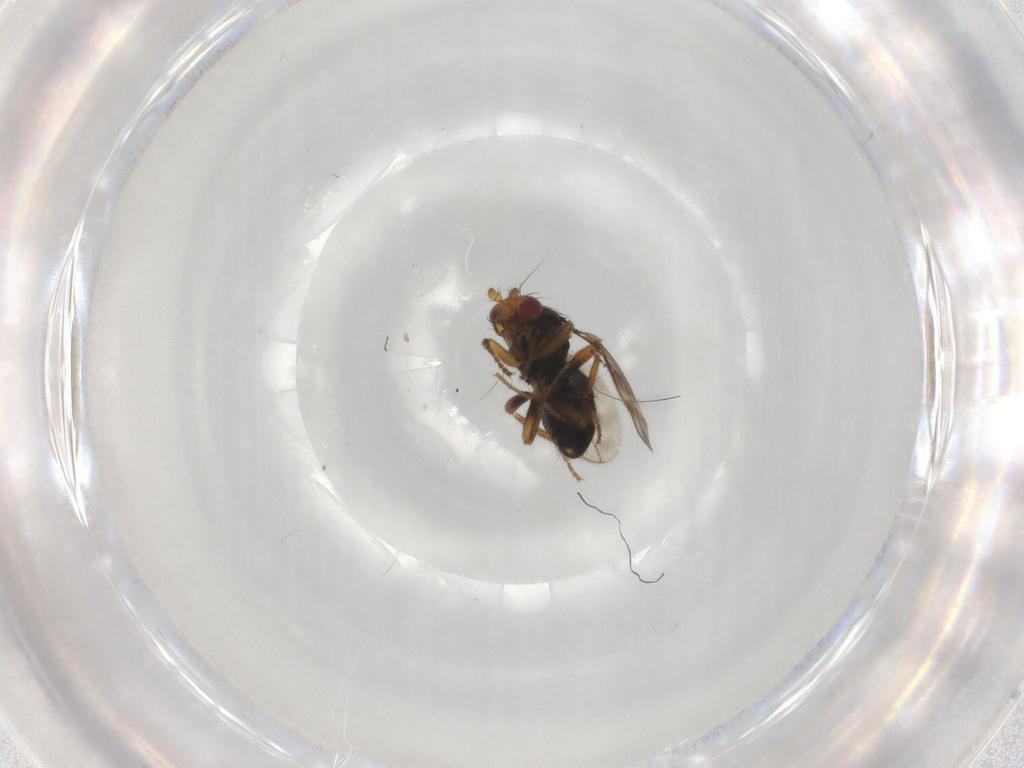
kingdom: Animalia
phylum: Arthropoda
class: Insecta
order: Diptera
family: Sphaeroceridae
